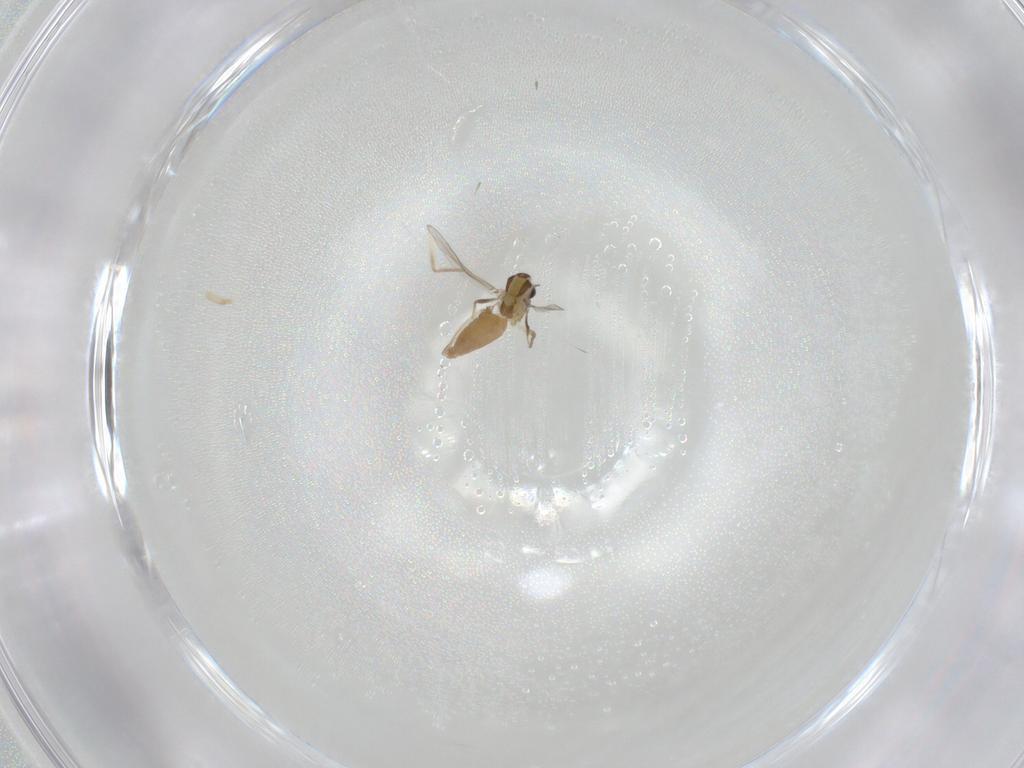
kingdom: Animalia
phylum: Arthropoda
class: Insecta
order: Diptera
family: Chironomidae
